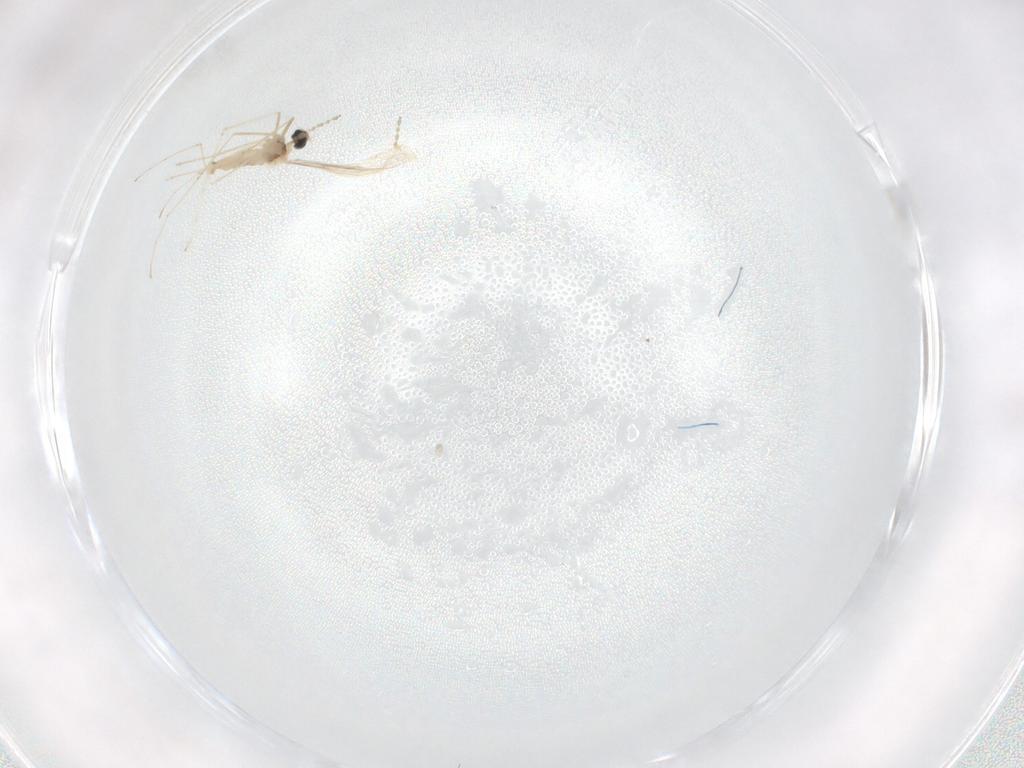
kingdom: Animalia
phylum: Arthropoda
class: Insecta
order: Diptera
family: Cecidomyiidae
